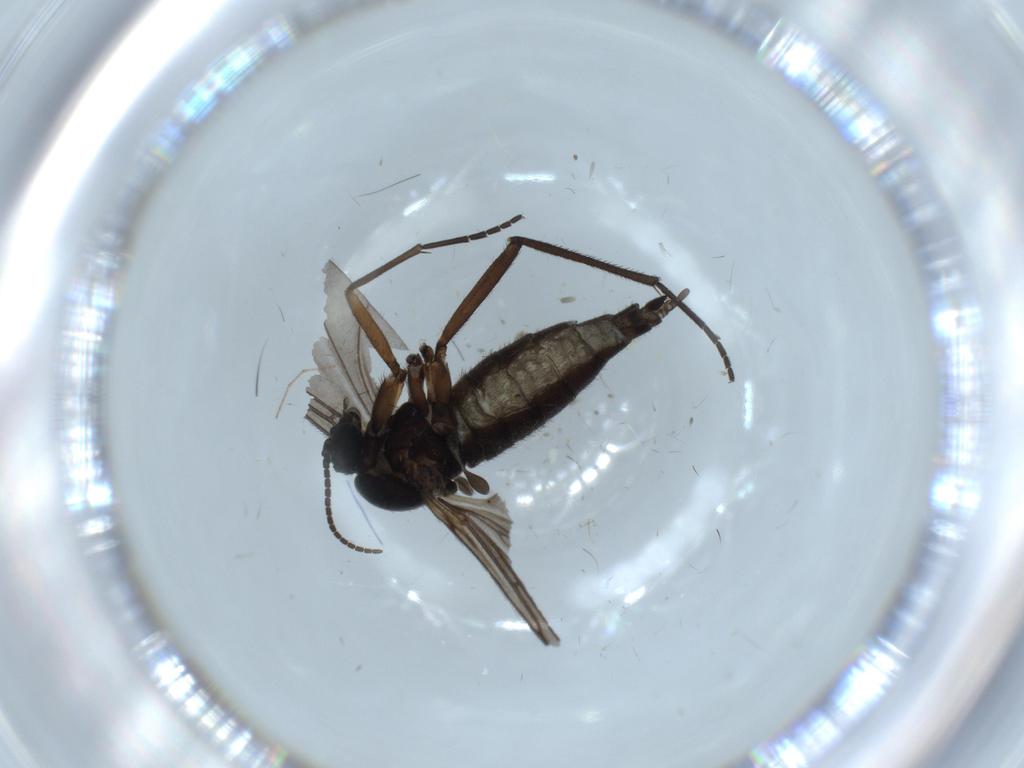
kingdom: Animalia
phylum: Arthropoda
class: Insecta
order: Diptera
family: Sciaridae
